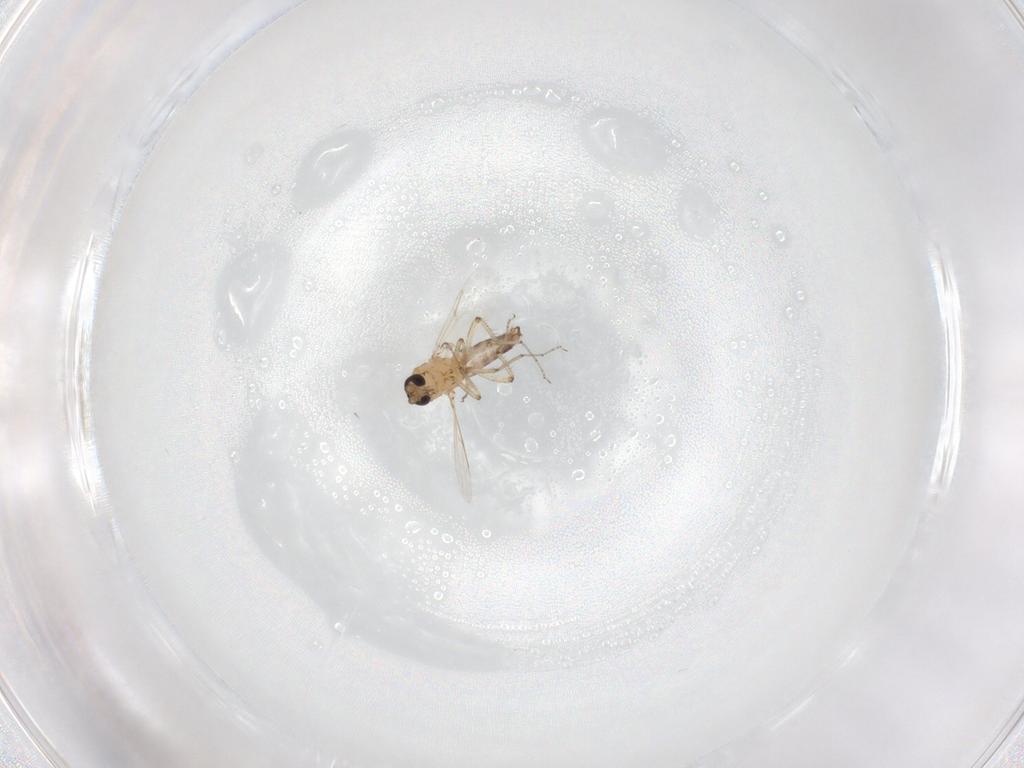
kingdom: Animalia
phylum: Arthropoda
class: Insecta
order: Diptera
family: Ceratopogonidae
